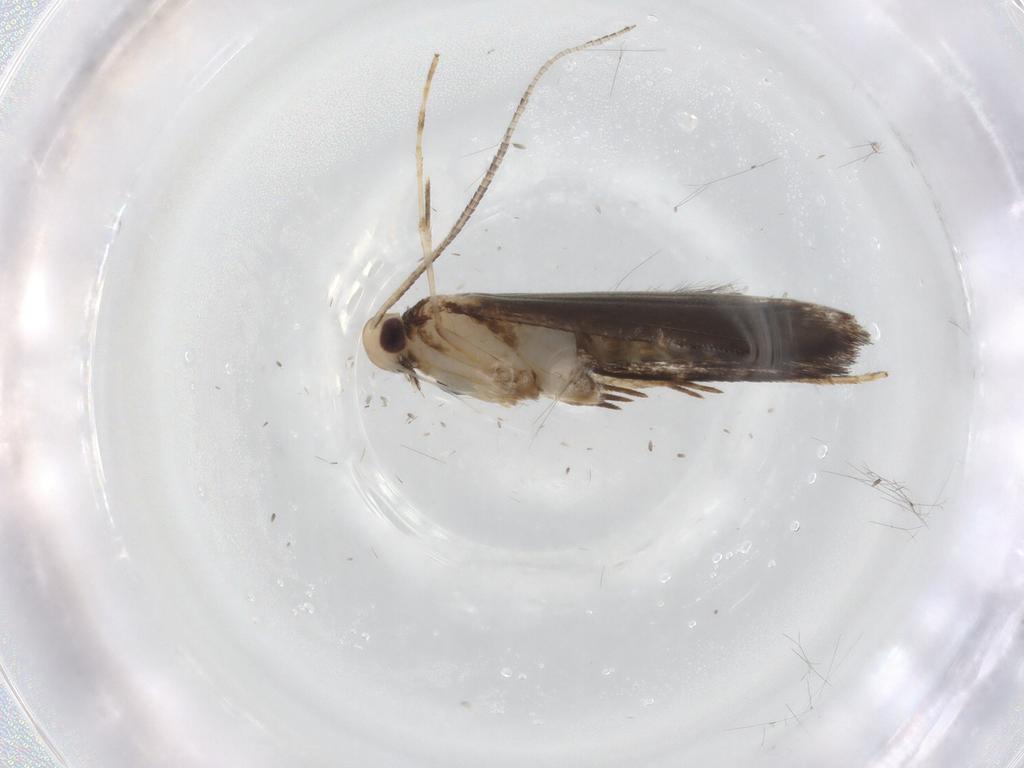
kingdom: Animalia
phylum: Arthropoda
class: Insecta
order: Lepidoptera
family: Gracillariidae
